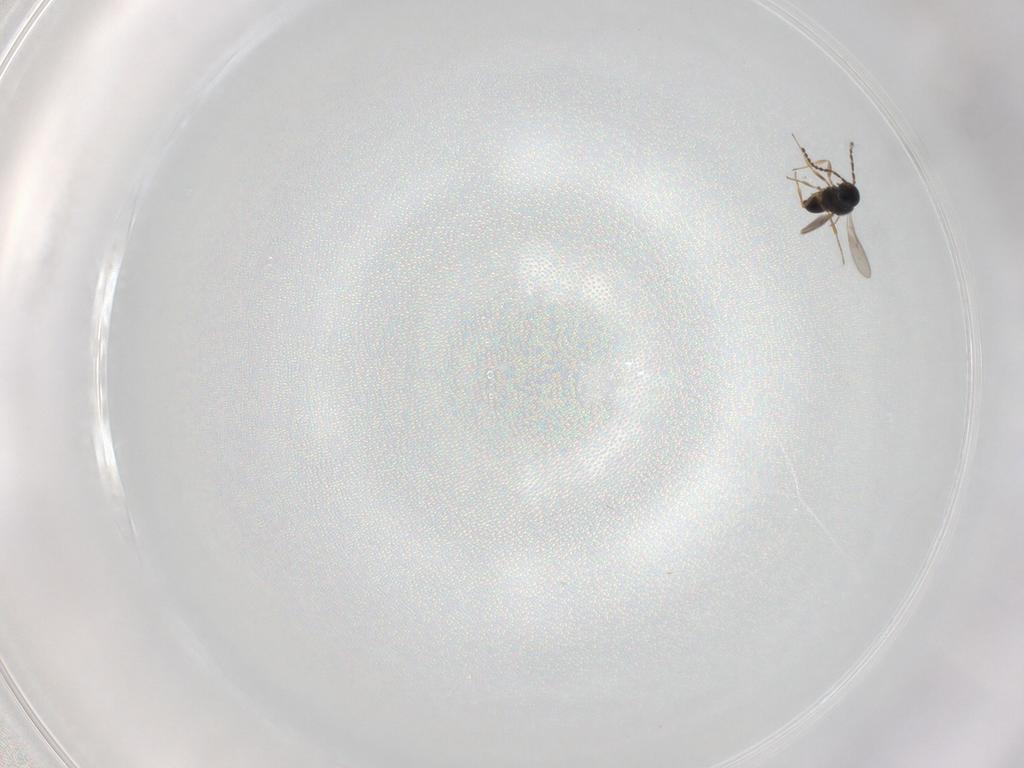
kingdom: Animalia
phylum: Arthropoda
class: Insecta
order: Hymenoptera
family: Scelionidae
